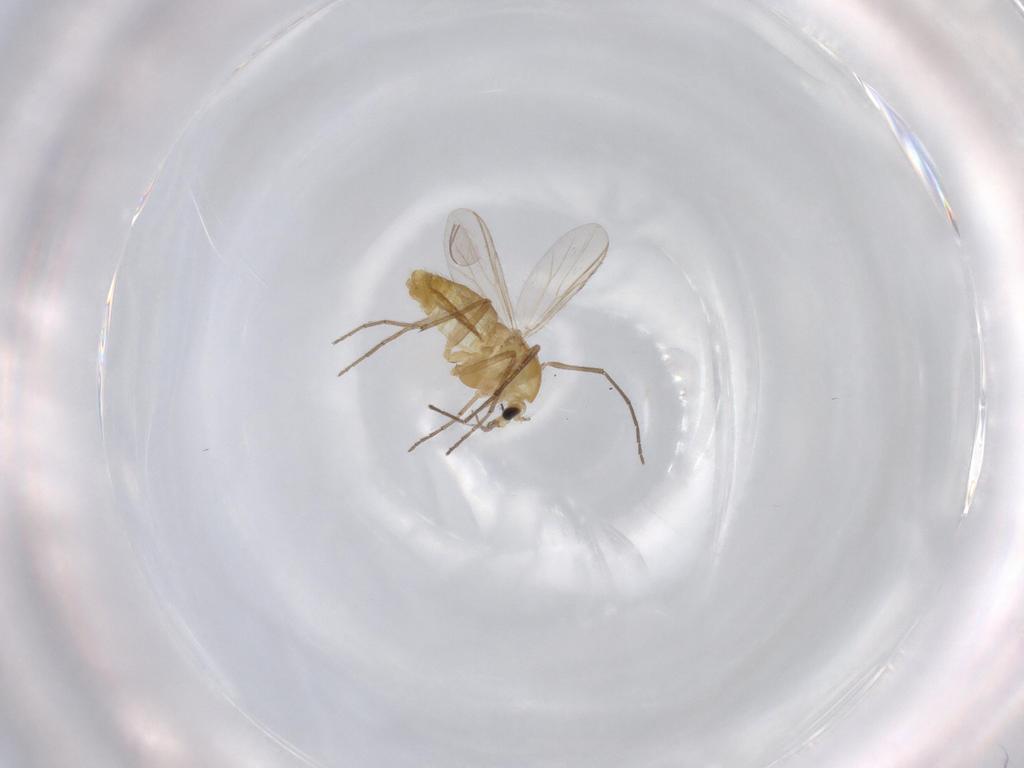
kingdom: Animalia
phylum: Arthropoda
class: Insecta
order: Diptera
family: Chironomidae
